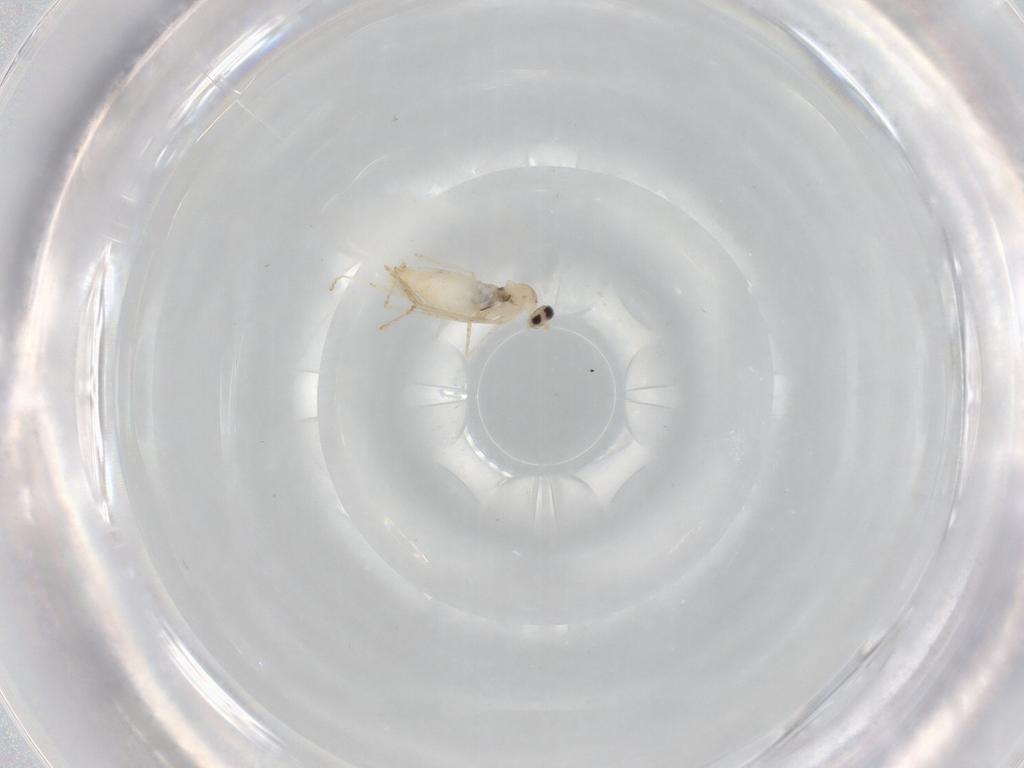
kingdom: Animalia
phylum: Arthropoda
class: Insecta
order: Diptera
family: Cecidomyiidae
